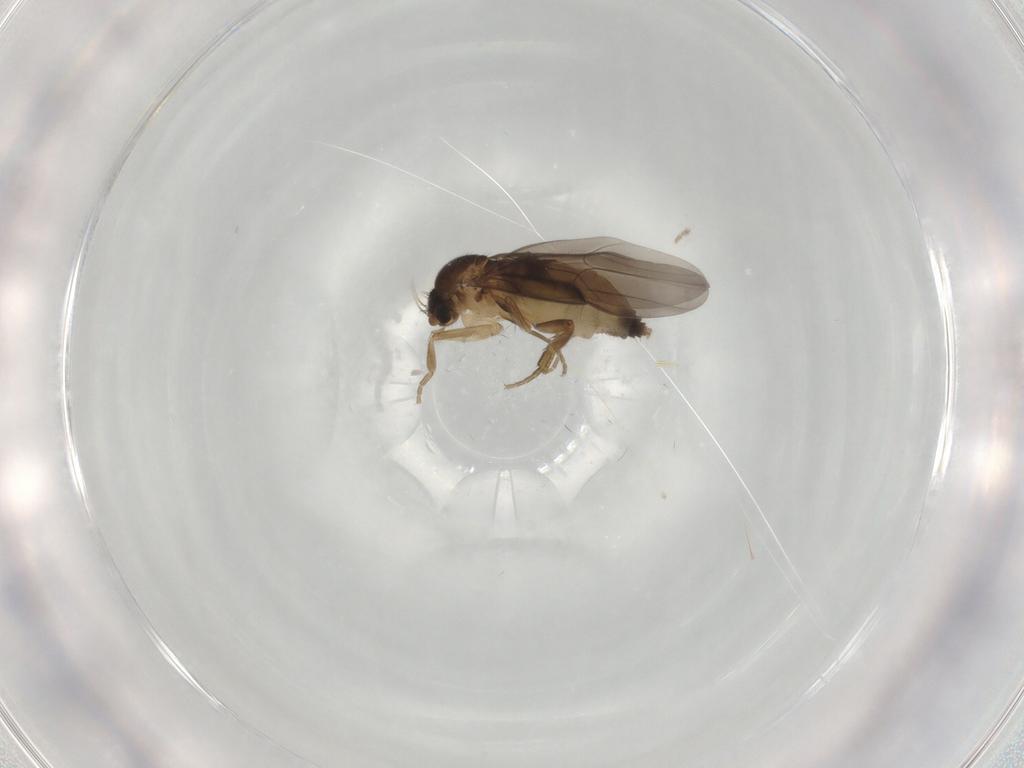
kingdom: Animalia
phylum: Arthropoda
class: Insecta
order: Diptera
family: Phoridae
